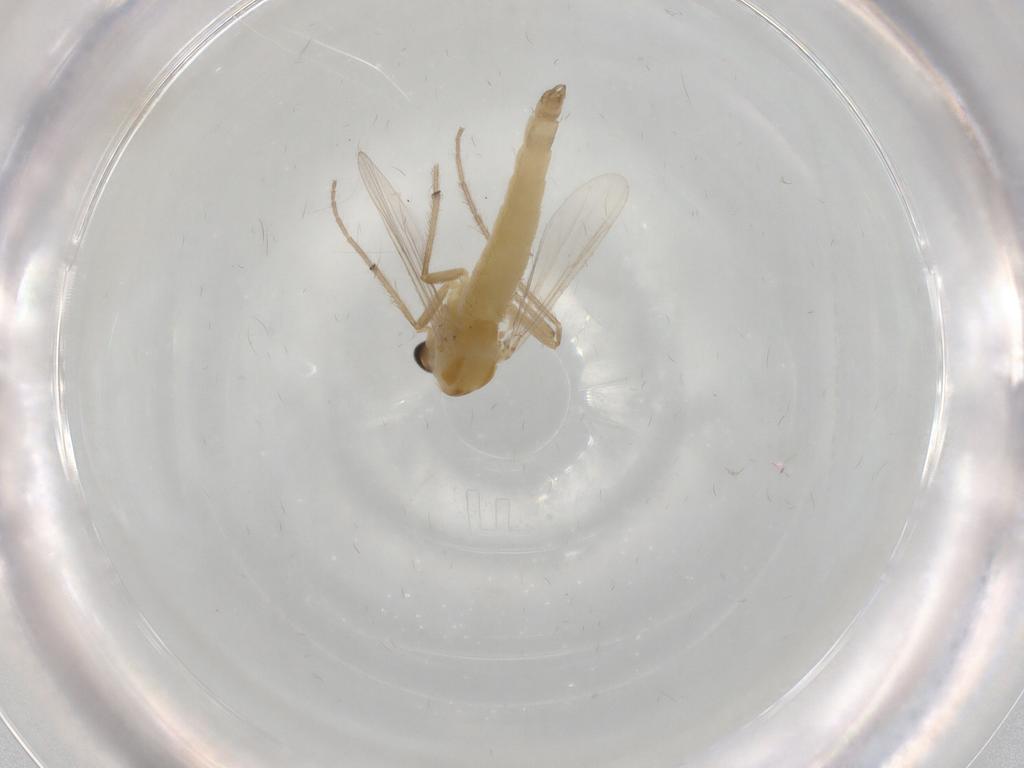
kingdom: Animalia
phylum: Arthropoda
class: Insecta
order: Diptera
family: Chironomidae
